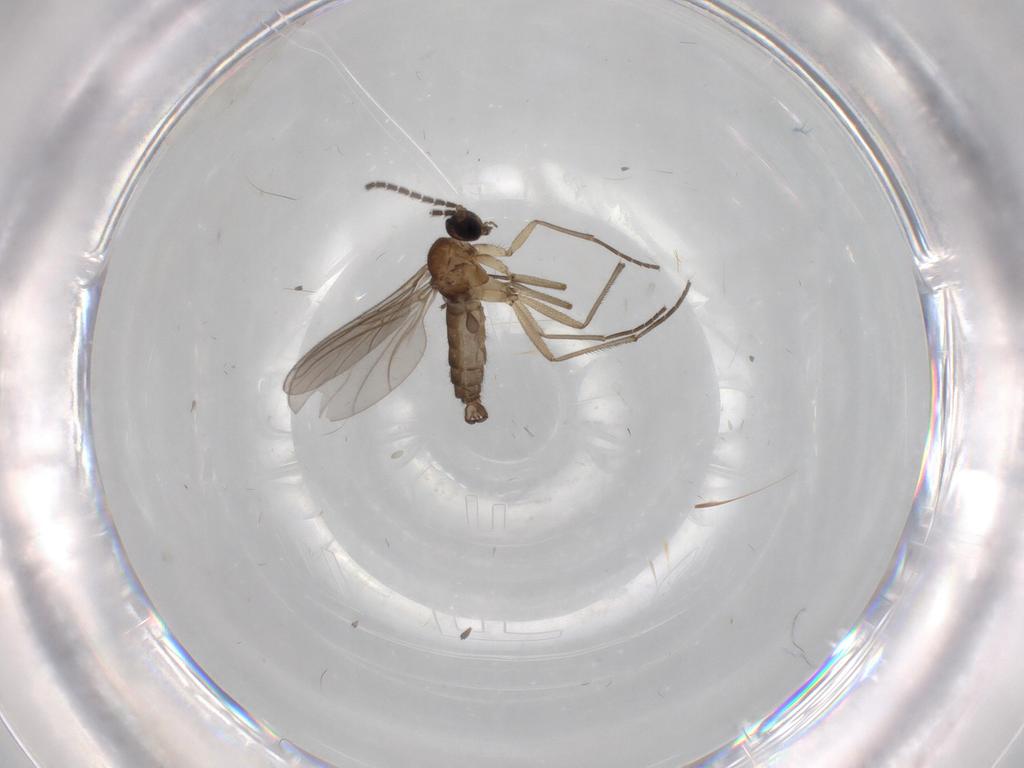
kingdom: Animalia
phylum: Arthropoda
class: Insecta
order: Diptera
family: Sciaridae
